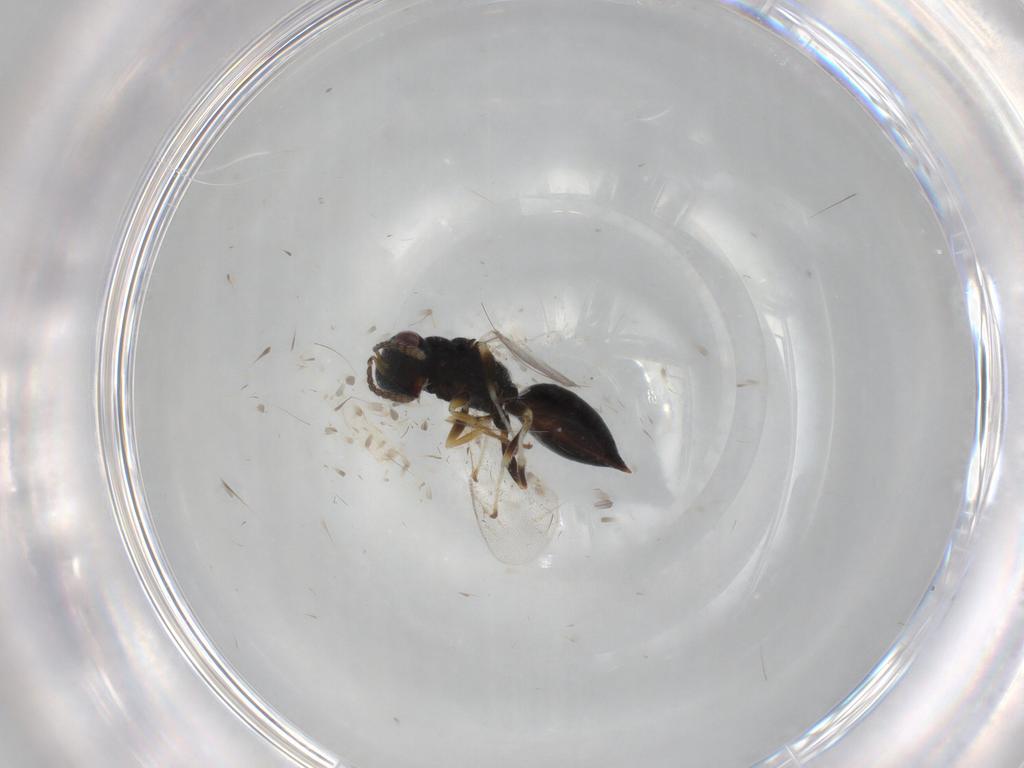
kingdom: Animalia
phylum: Arthropoda
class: Insecta
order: Hymenoptera
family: Eurytomidae
